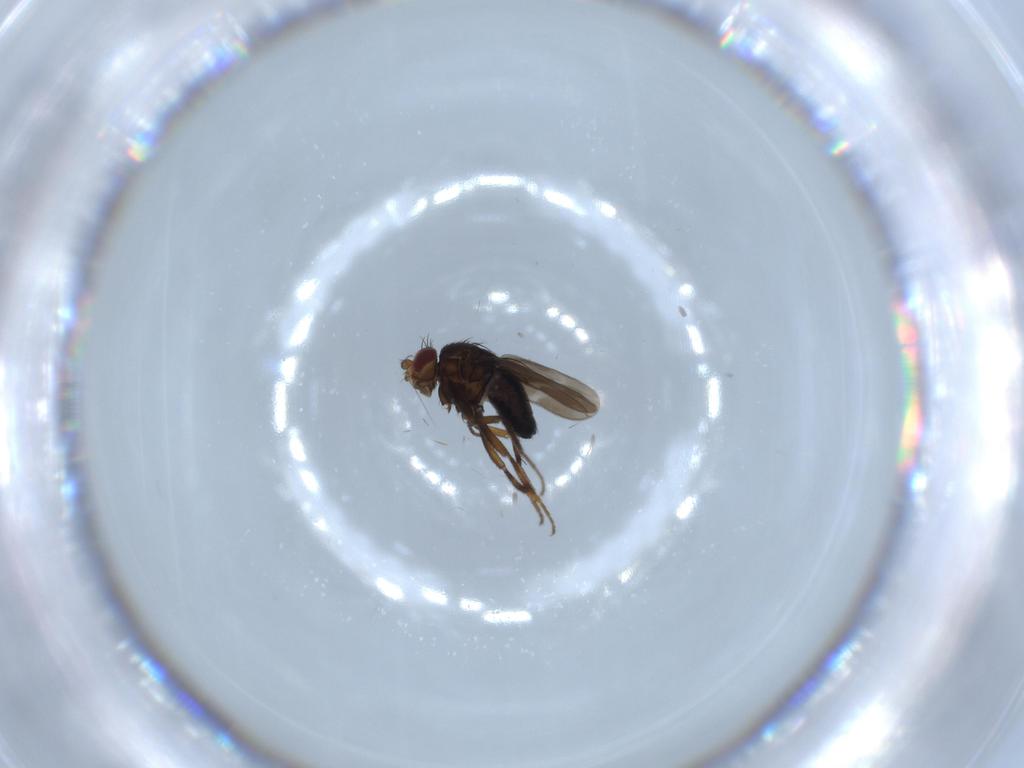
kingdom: Animalia
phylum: Arthropoda
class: Insecta
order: Diptera
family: Sphaeroceridae
